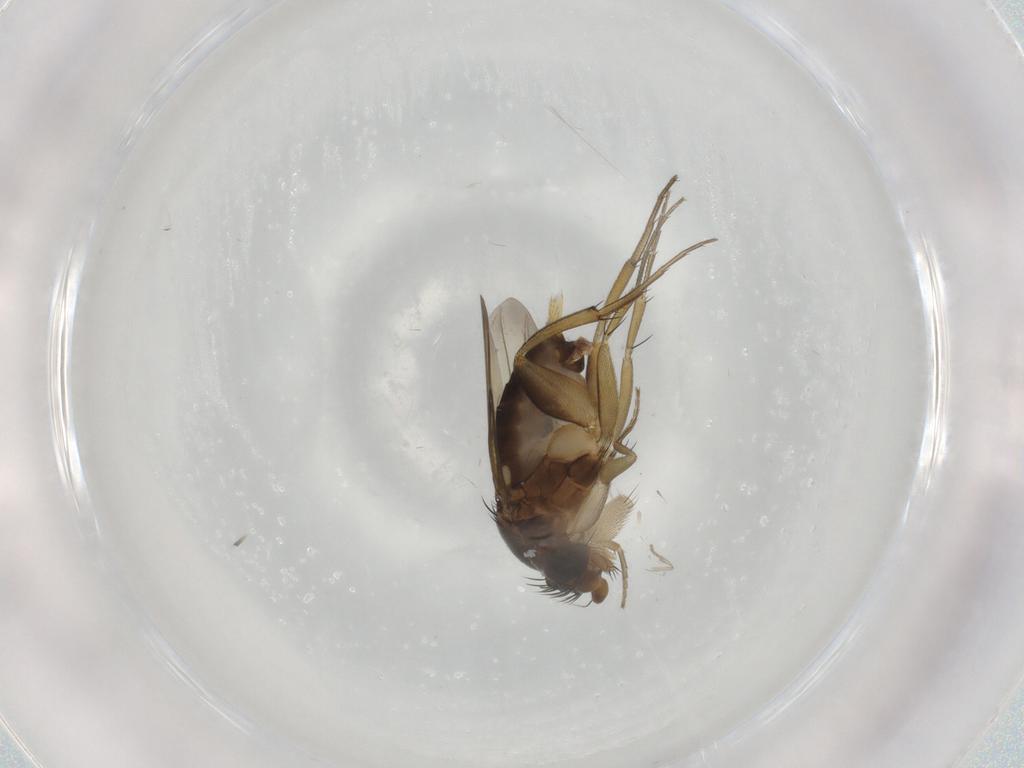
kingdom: Animalia
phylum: Arthropoda
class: Insecta
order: Diptera
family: Phoridae
